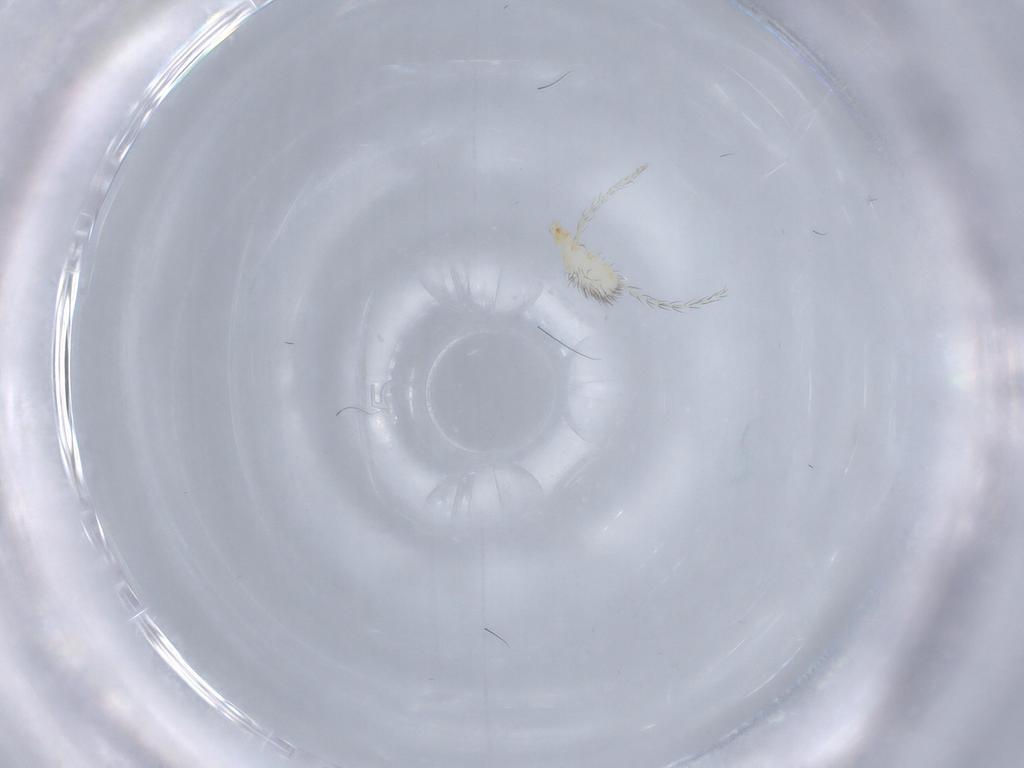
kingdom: Animalia
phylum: Arthropoda
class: Arachnida
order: Trombidiformes
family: Erythraeidae
